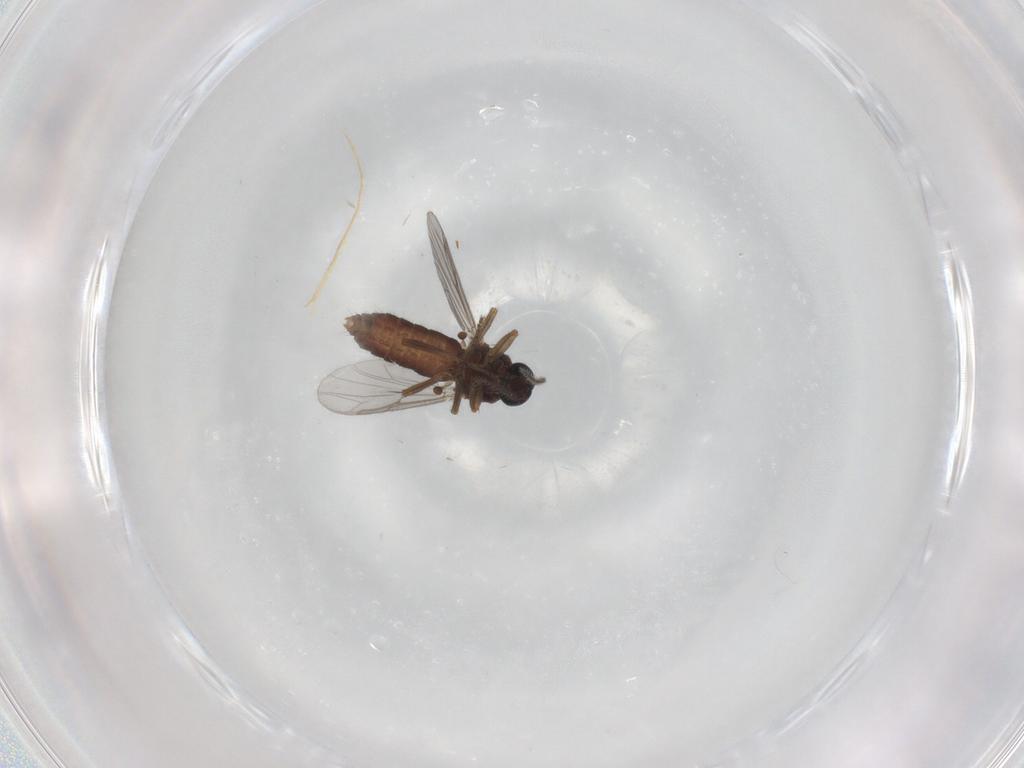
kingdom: Animalia
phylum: Arthropoda
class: Insecta
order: Diptera
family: Ceratopogonidae
